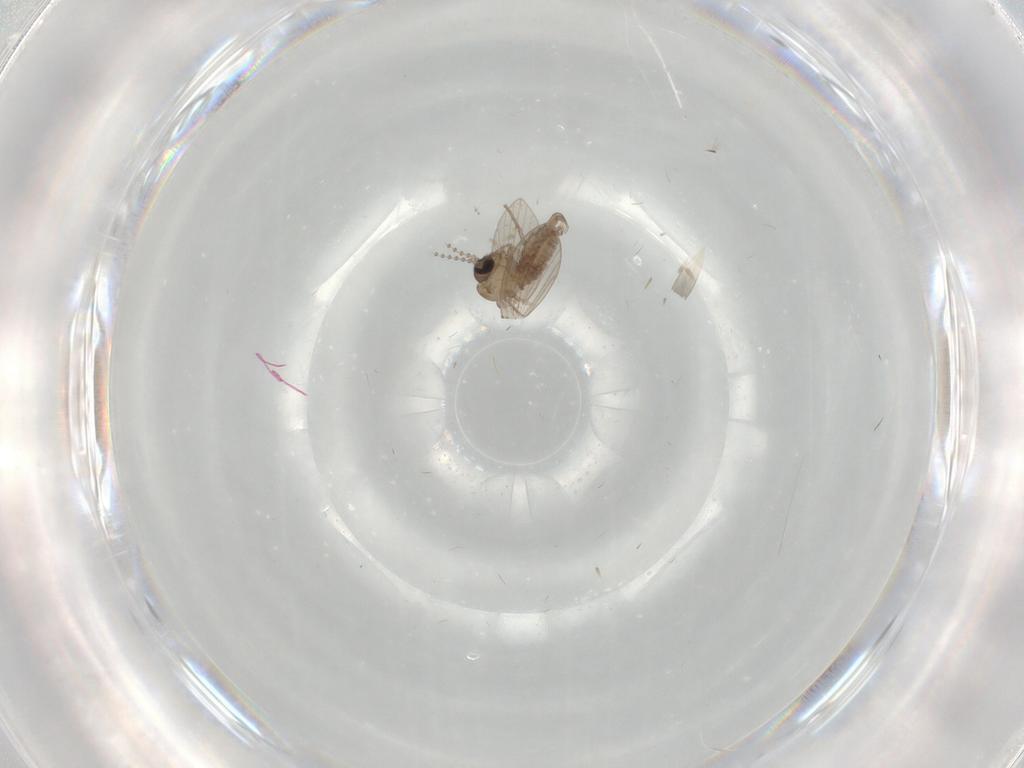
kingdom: Animalia
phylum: Arthropoda
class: Insecta
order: Diptera
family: Psychodidae
